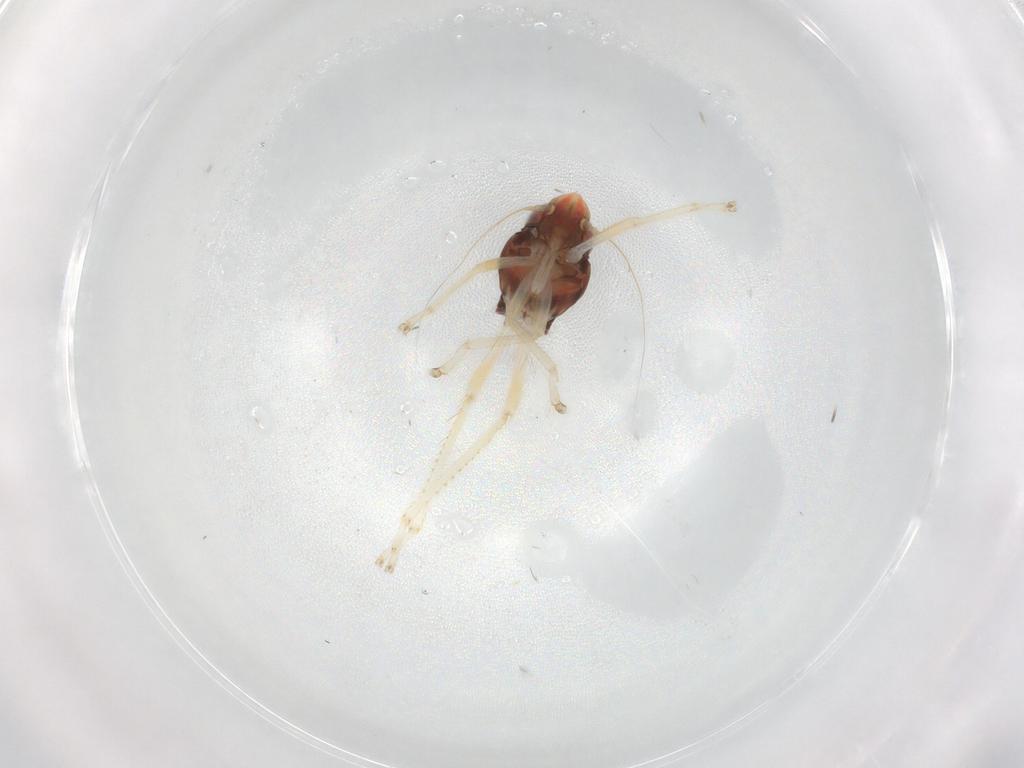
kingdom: Animalia
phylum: Arthropoda
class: Insecta
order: Hemiptera
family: Cicadellidae
